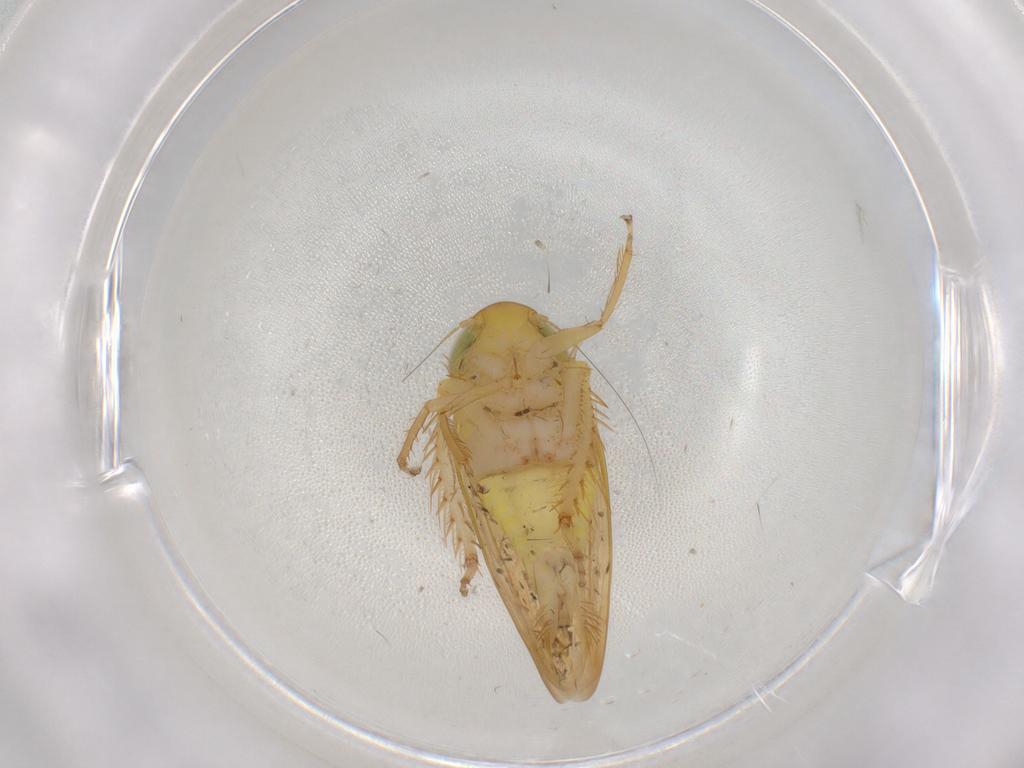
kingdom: Animalia
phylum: Arthropoda
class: Insecta
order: Hemiptera
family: Cicadellidae
